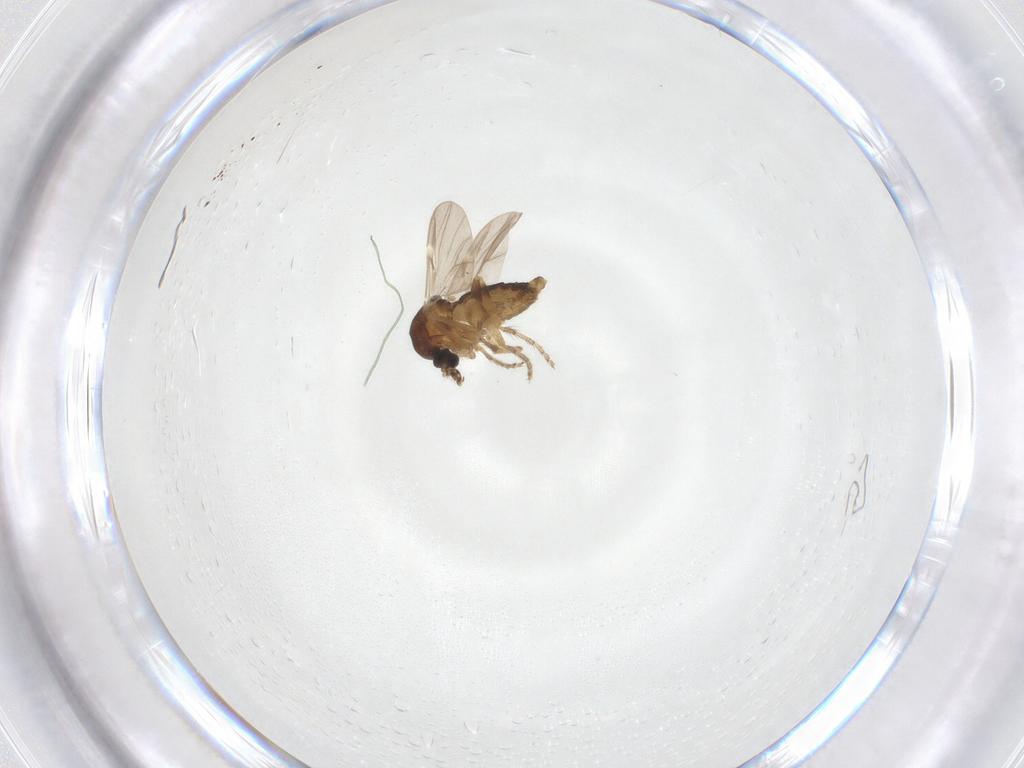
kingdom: Animalia
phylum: Arthropoda
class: Insecta
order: Diptera
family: Ceratopogonidae
